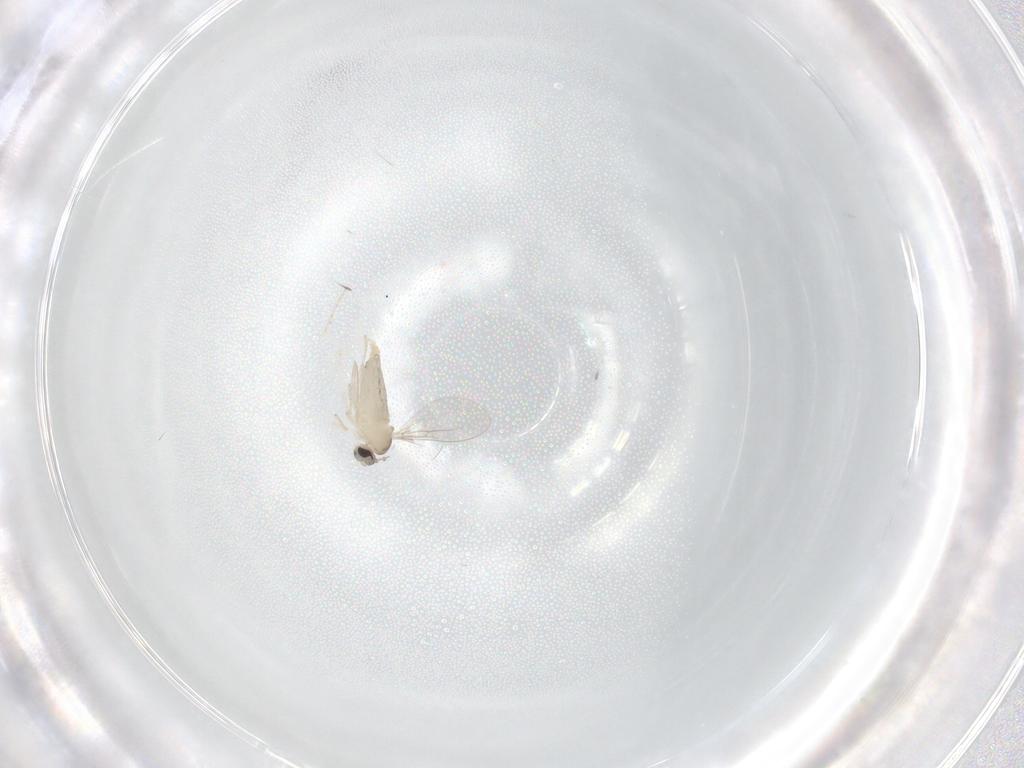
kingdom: Animalia
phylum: Arthropoda
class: Insecta
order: Diptera
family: Cecidomyiidae
